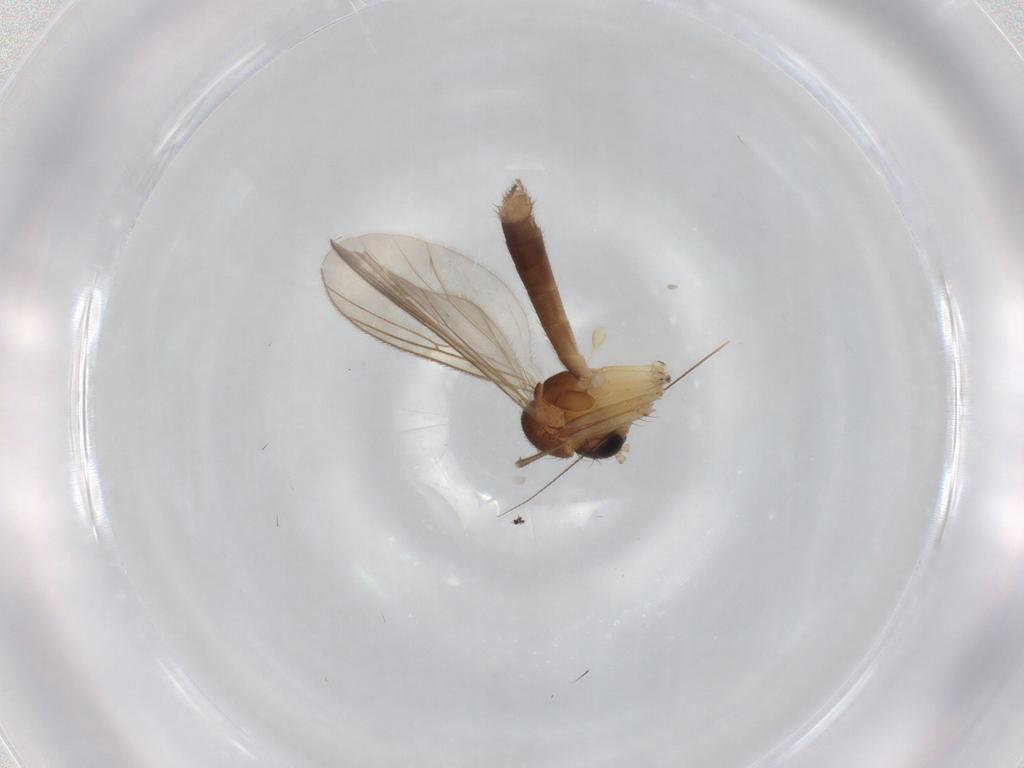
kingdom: Animalia
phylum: Arthropoda
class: Insecta
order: Diptera
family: Mycetophilidae
